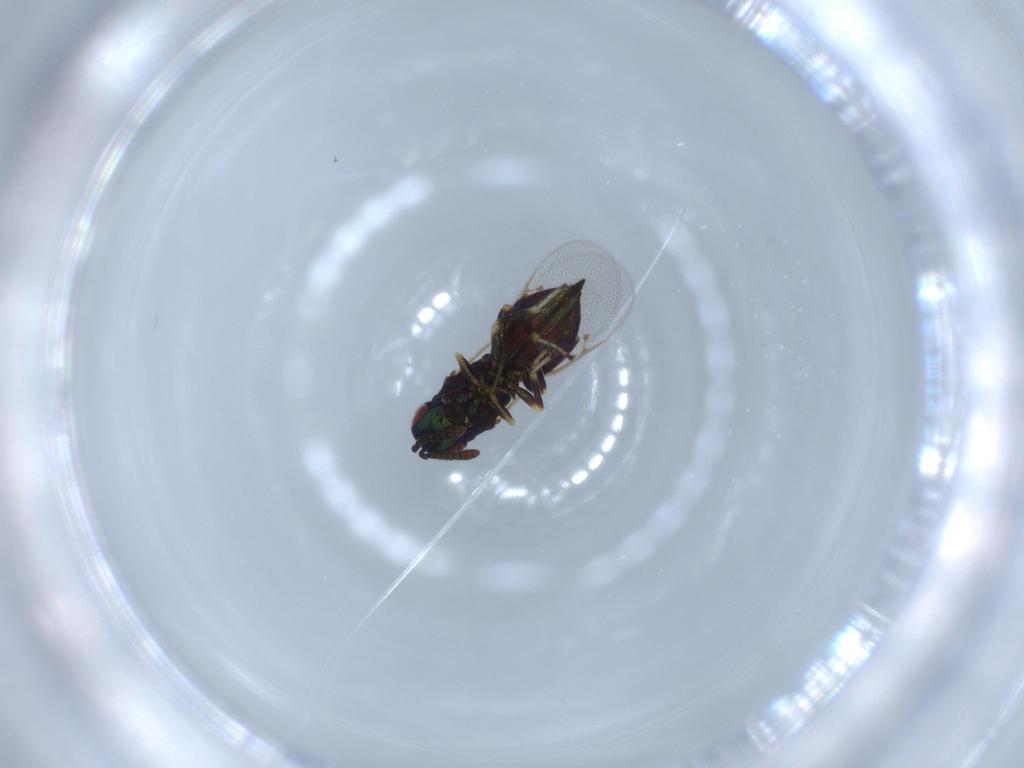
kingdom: Animalia
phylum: Arthropoda
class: Insecta
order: Hymenoptera
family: Pteromalidae
